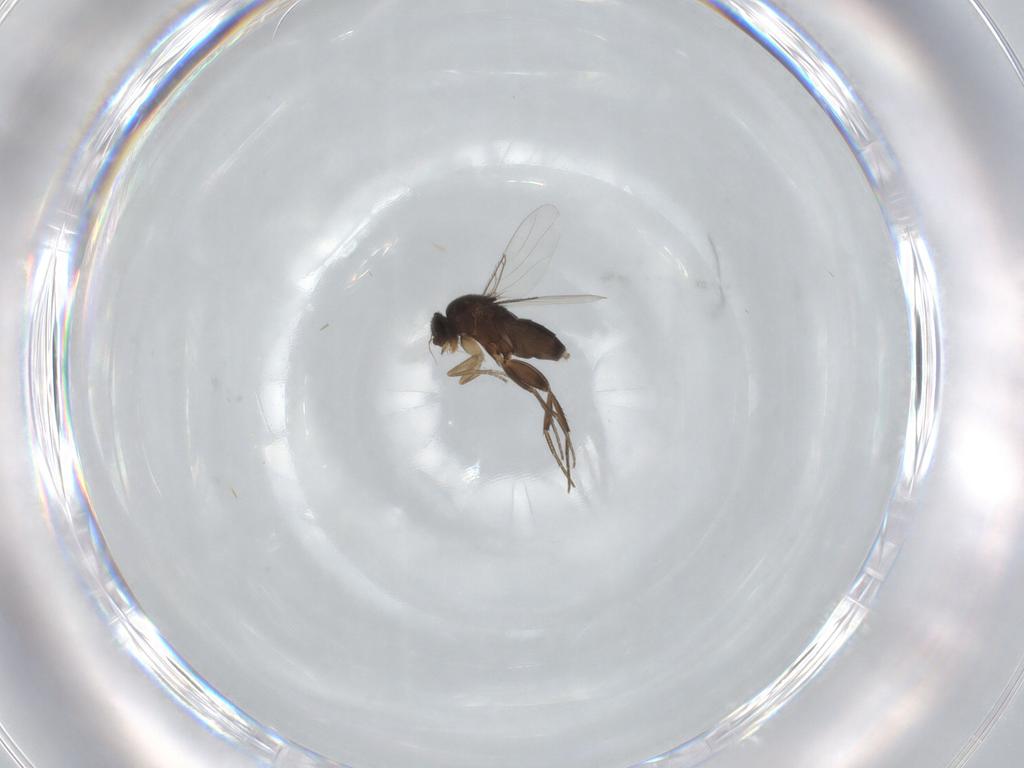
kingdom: Animalia
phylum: Arthropoda
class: Insecta
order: Diptera
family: Phoridae
